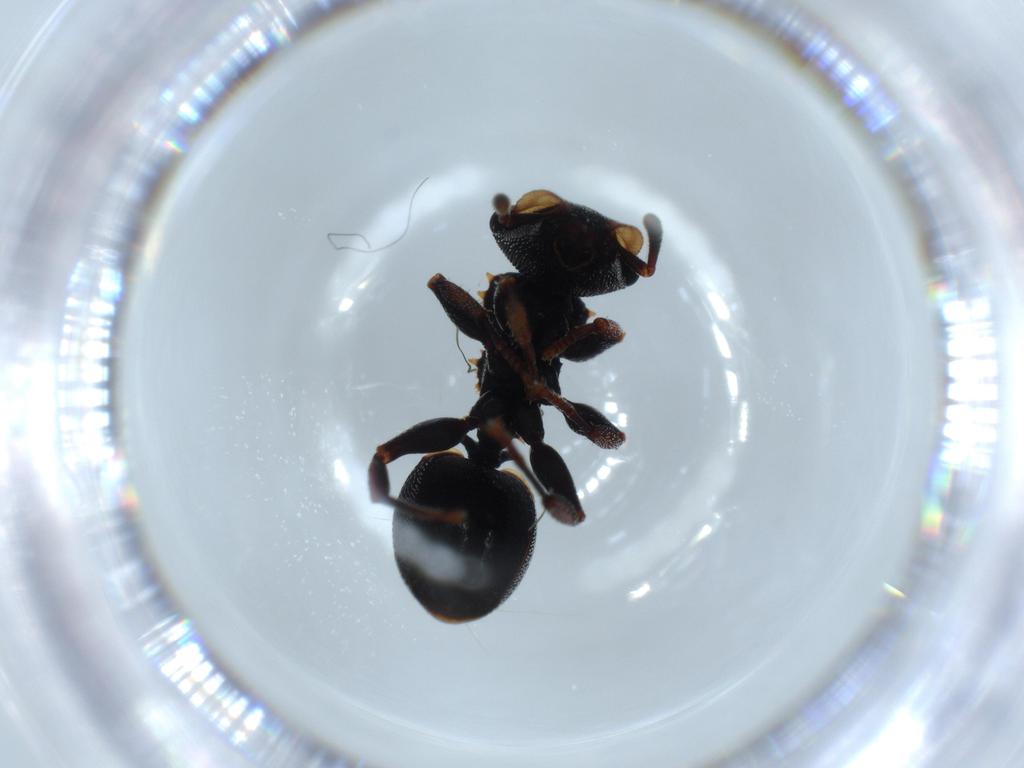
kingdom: Animalia
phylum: Arthropoda
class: Insecta
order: Hymenoptera
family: Formicidae
